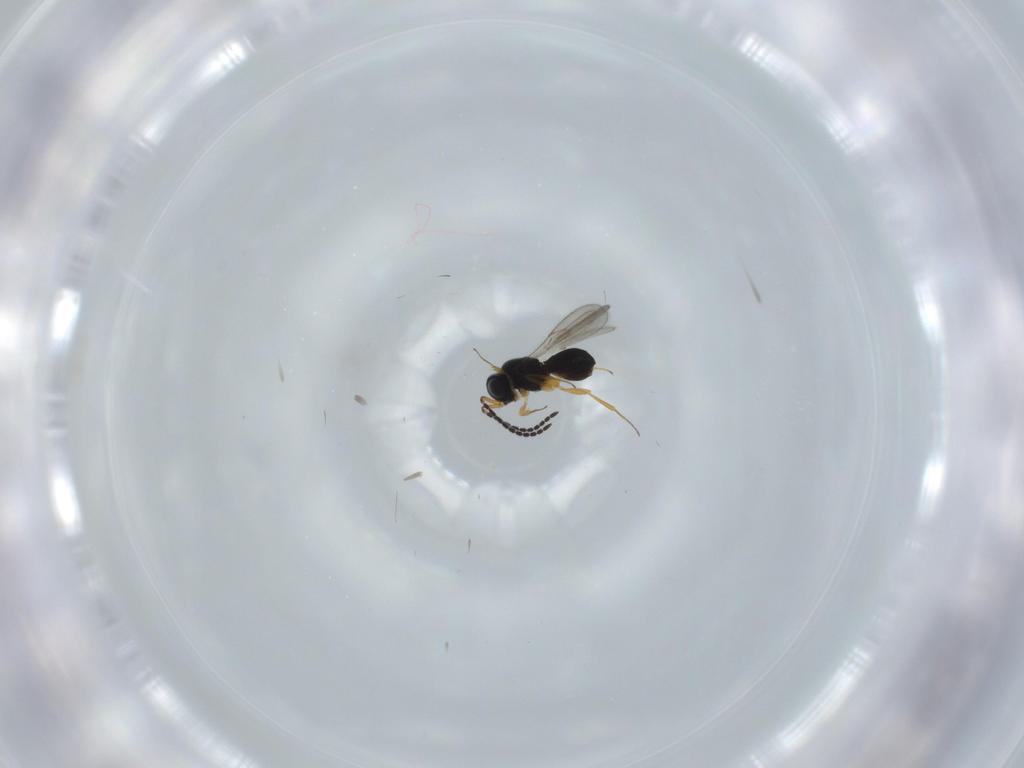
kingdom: Animalia
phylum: Arthropoda
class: Insecta
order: Hymenoptera
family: Scelionidae
